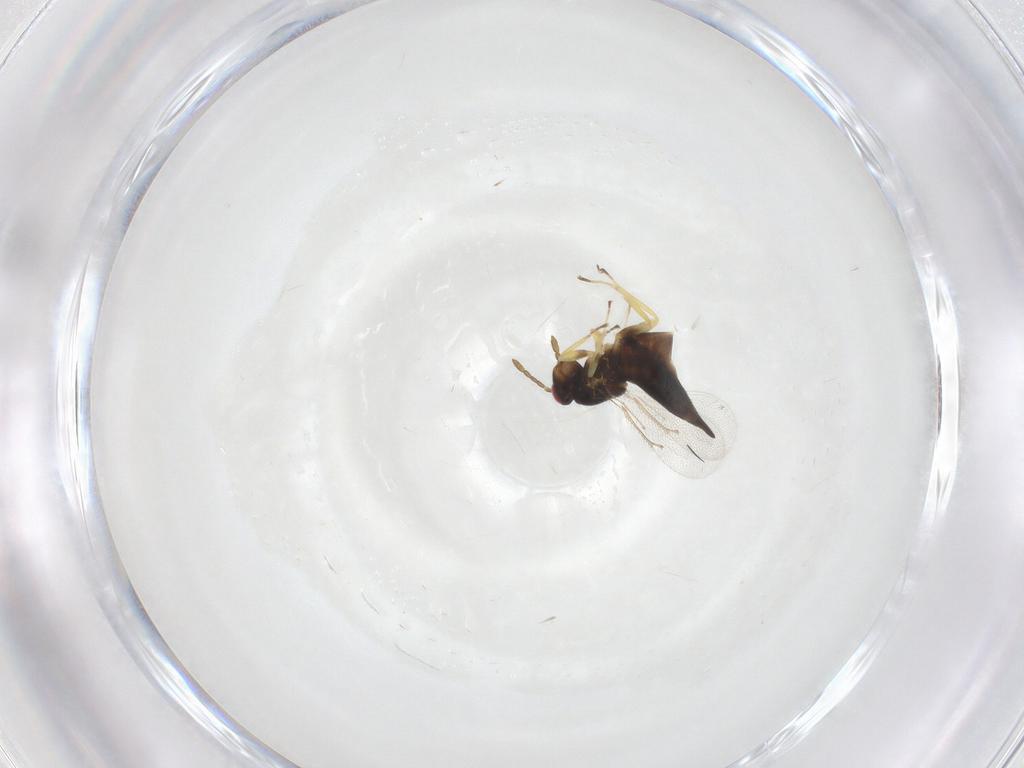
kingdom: Animalia
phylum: Arthropoda
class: Insecta
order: Hymenoptera
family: Eulophidae
